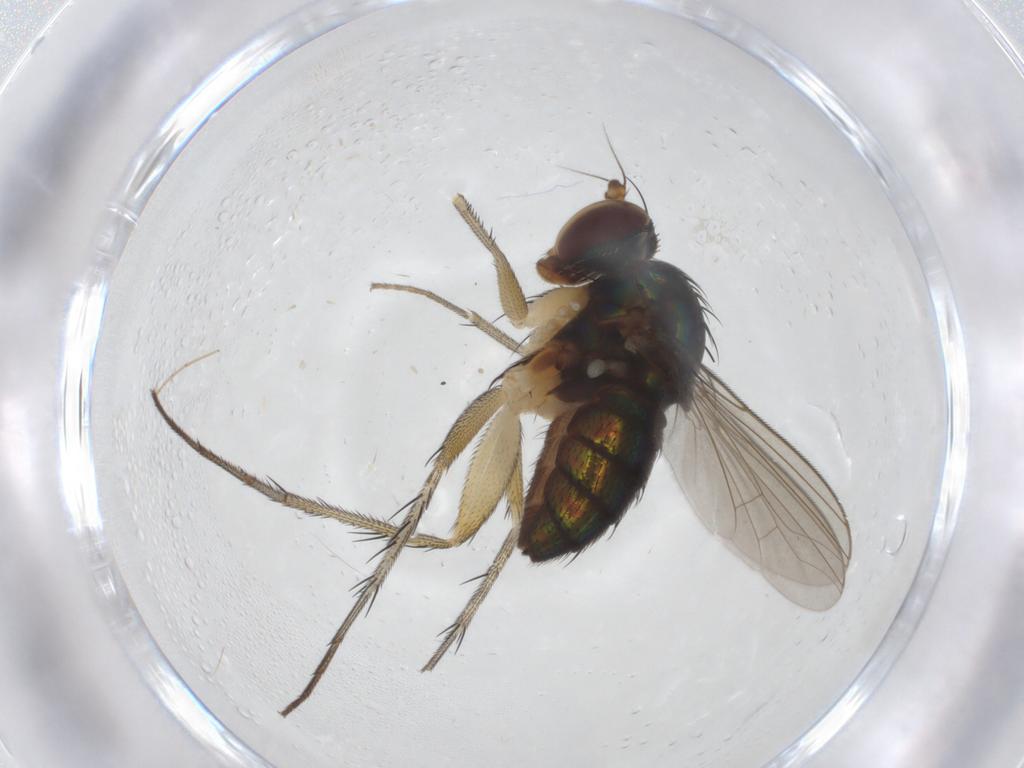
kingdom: Animalia
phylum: Arthropoda
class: Insecta
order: Diptera
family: Dolichopodidae
